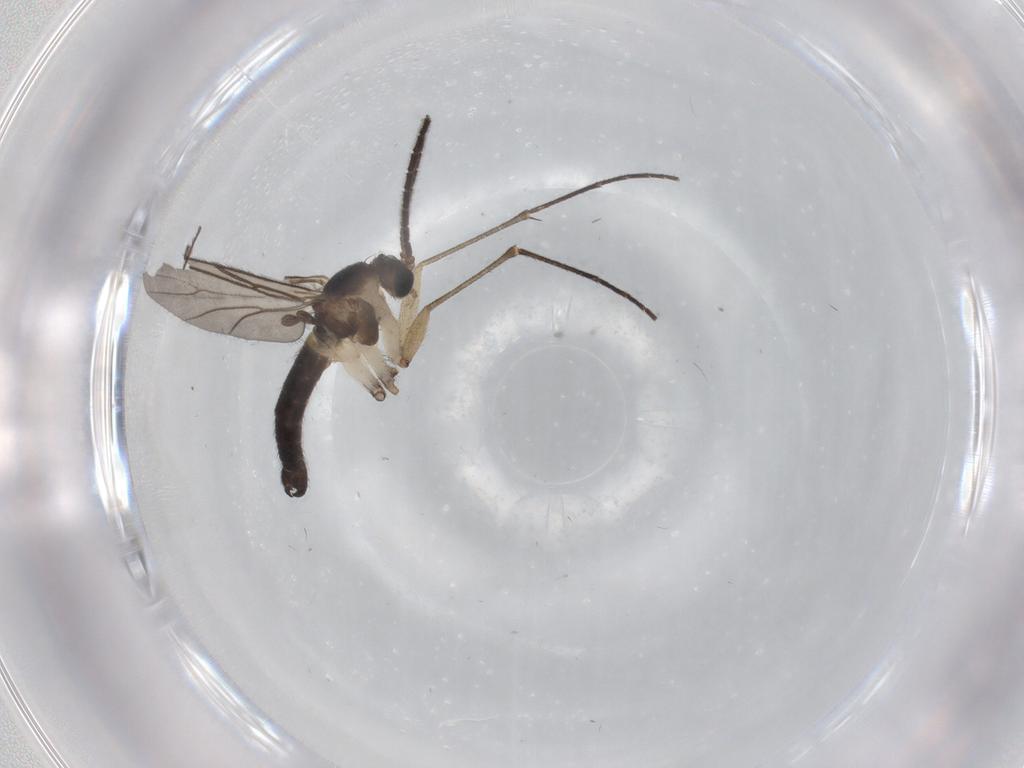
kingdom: Animalia
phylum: Arthropoda
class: Insecta
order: Diptera
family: Sciaridae
